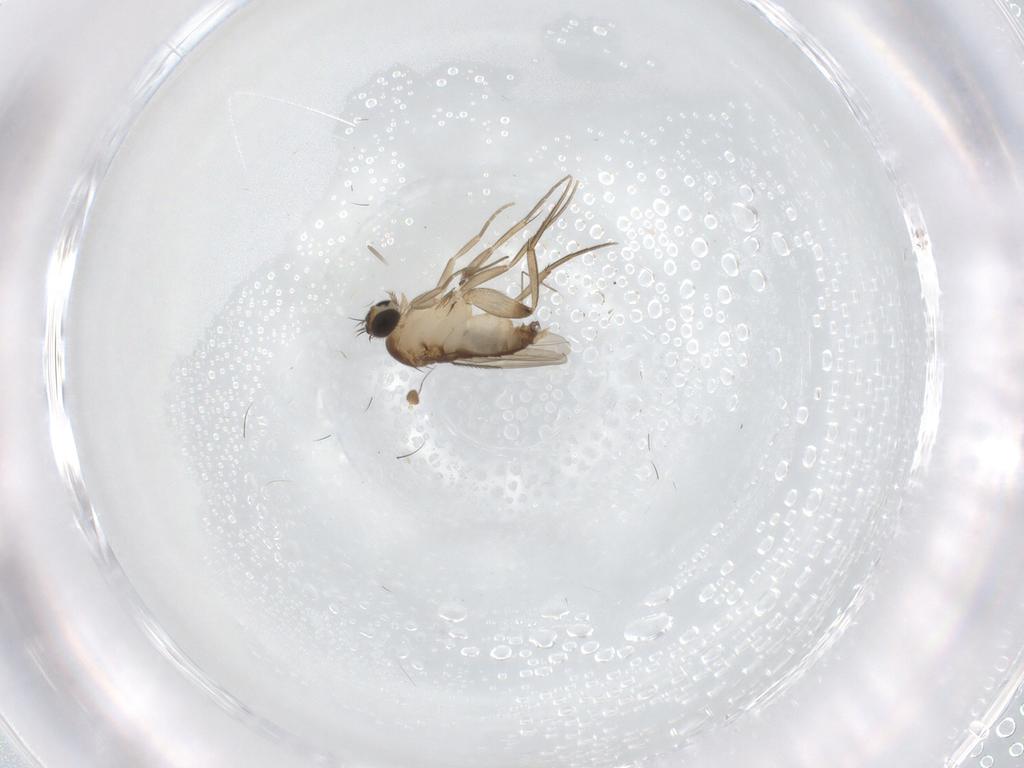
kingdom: Animalia
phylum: Arthropoda
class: Insecta
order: Diptera
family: Phoridae
